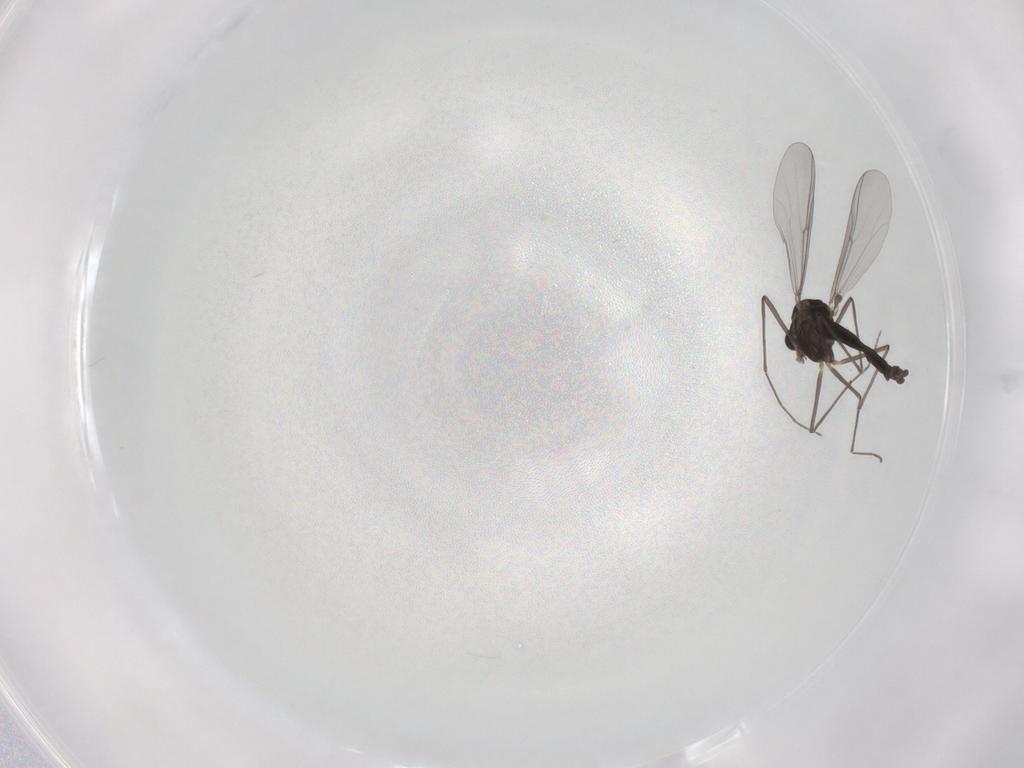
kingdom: Animalia
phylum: Arthropoda
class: Insecta
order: Diptera
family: Chironomidae
